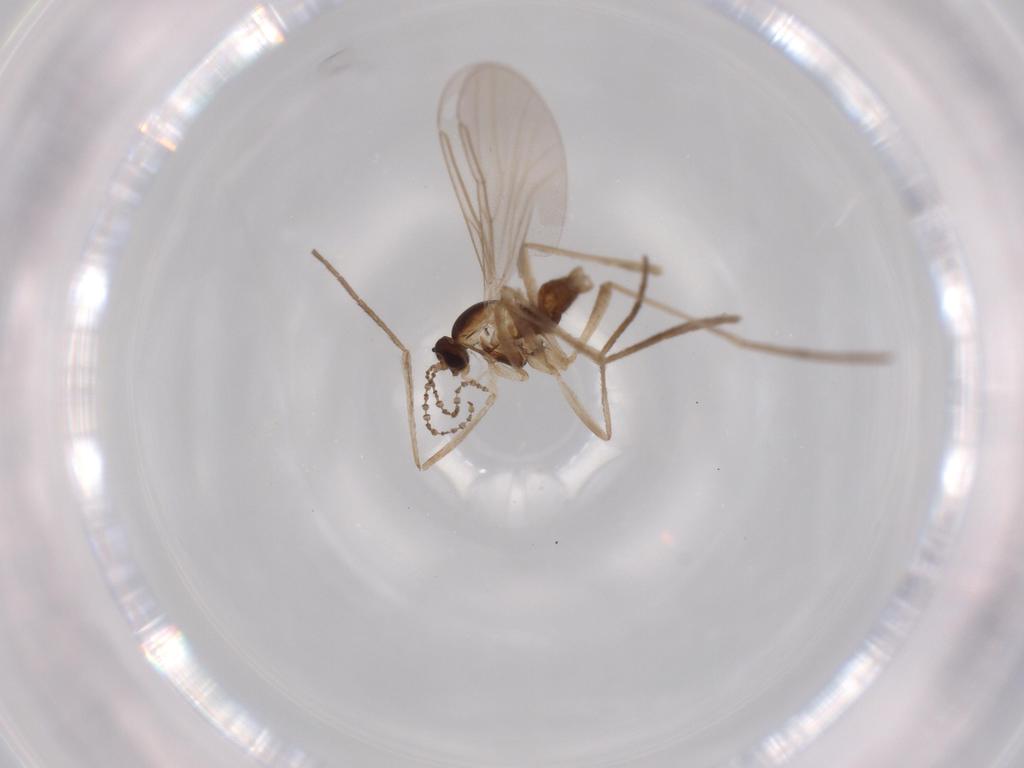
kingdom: Animalia
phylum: Arthropoda
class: Insecta
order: Diptera
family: Cecidomyiidae
